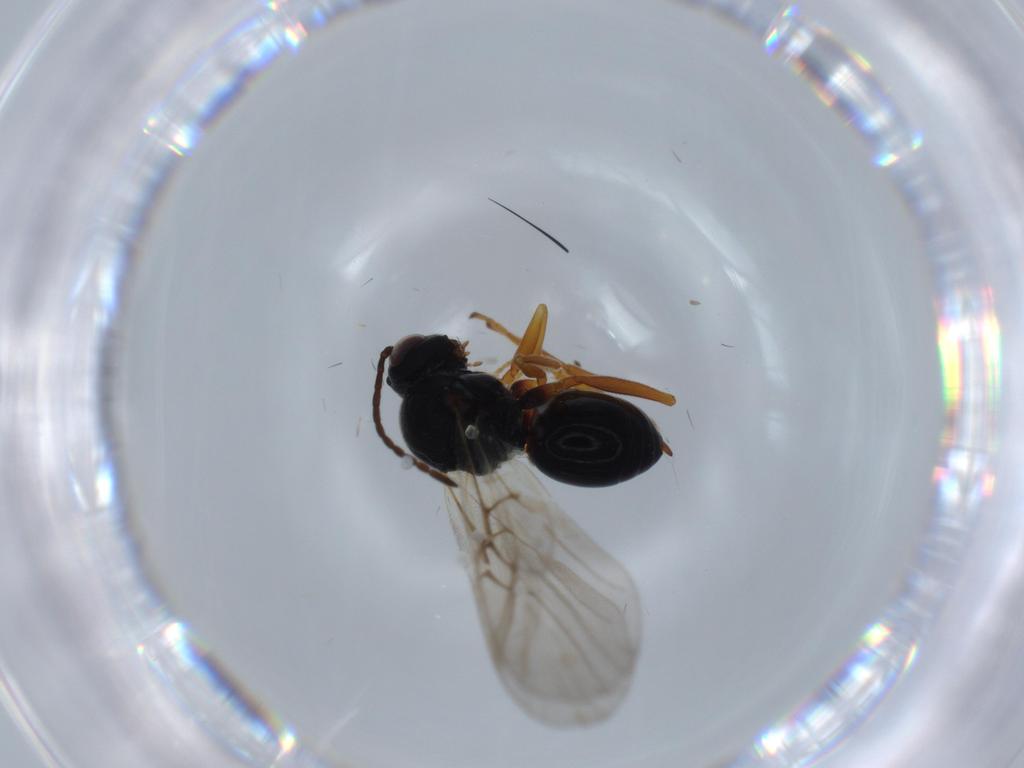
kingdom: Animalia
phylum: Arthropoda
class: Insecta
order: Hymenoptera
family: Cynipidae
